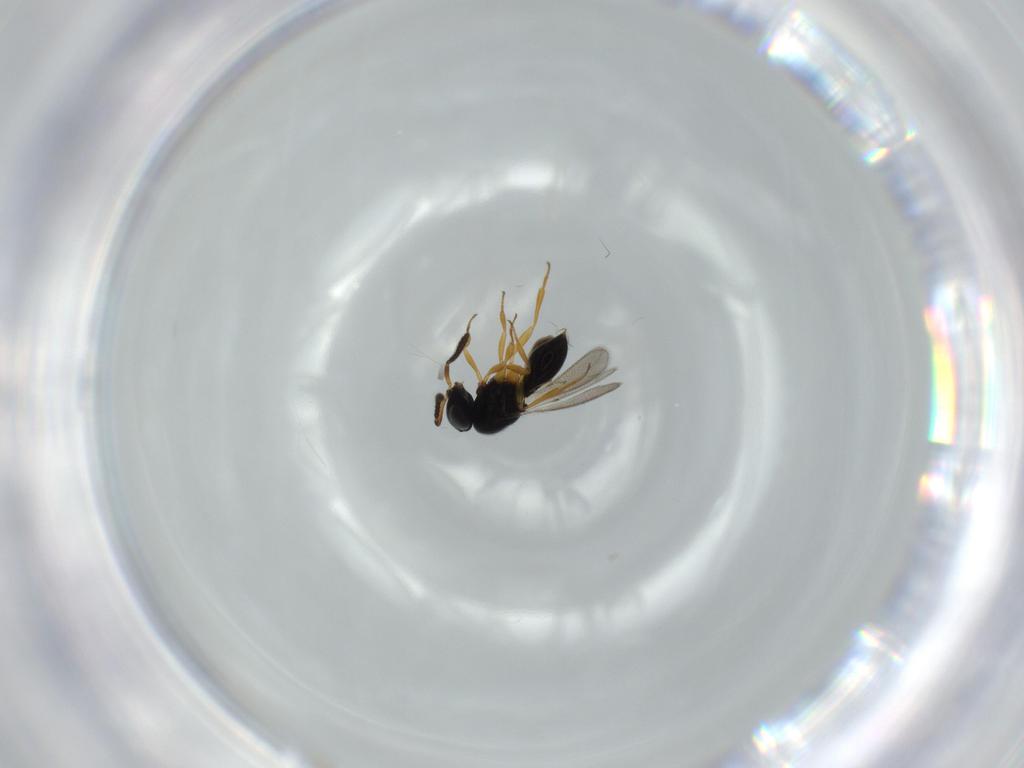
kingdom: Animalia
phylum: Arthropoda
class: Insecta
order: Hymenoptera
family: Scelionidae
